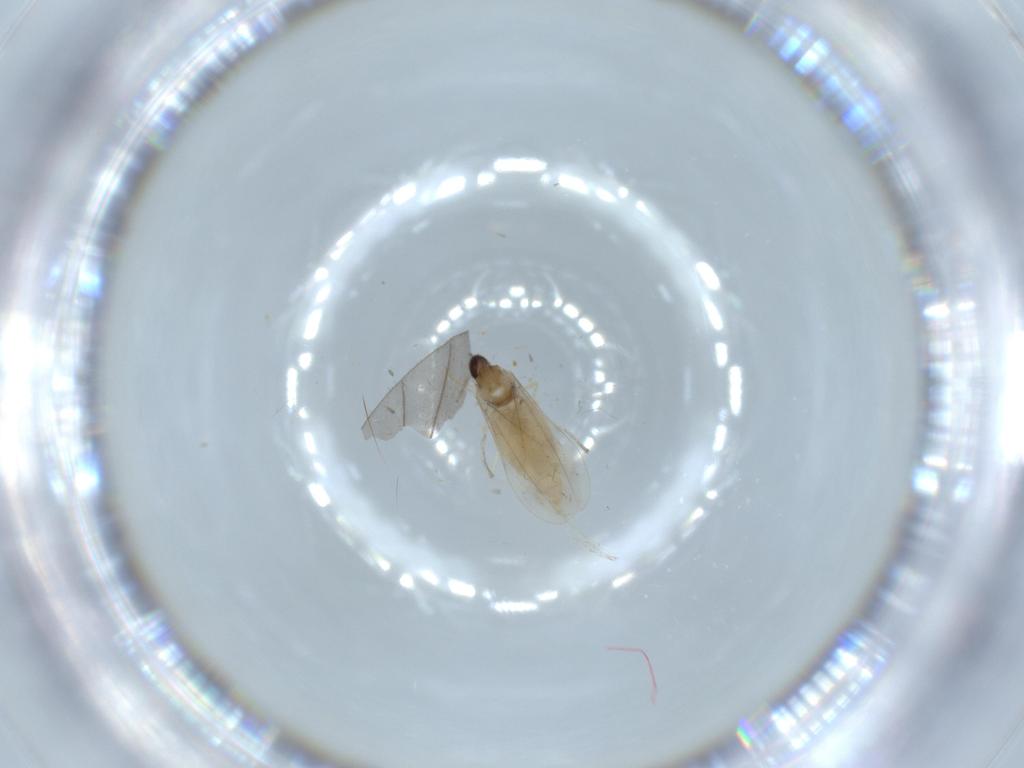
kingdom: Animalia
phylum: Arthropoda
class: Insecta
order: Diptera
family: Cecidomyiidae
